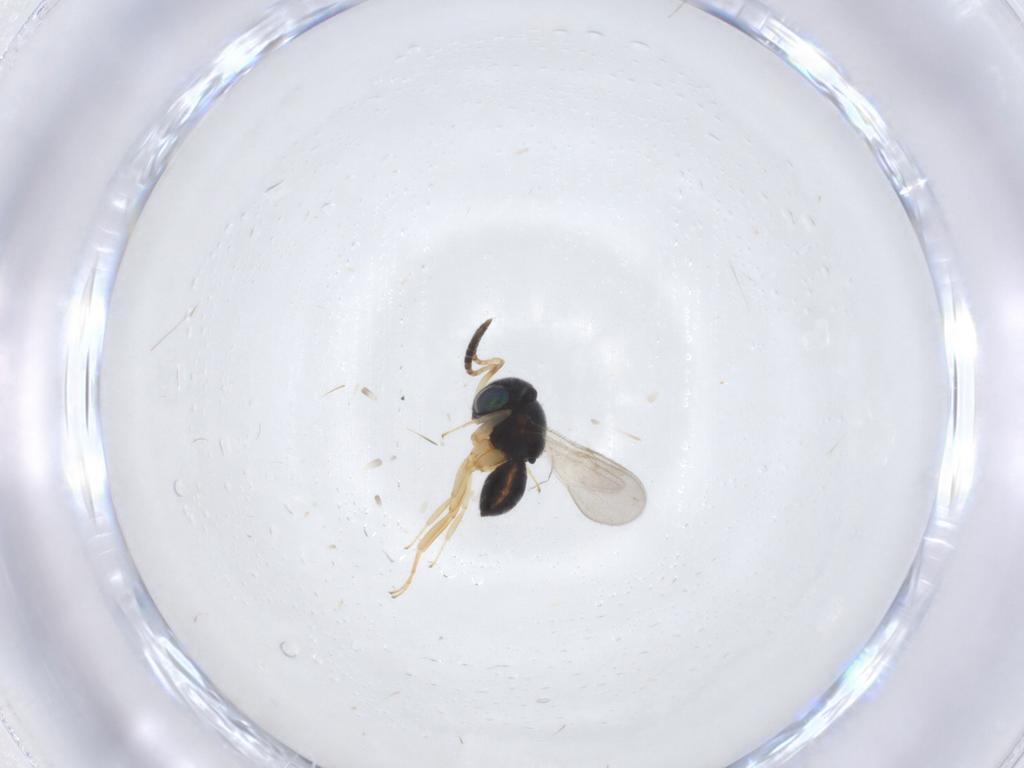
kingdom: Animalia
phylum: Arthropoda
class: Insecta
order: Hymenoptera
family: Scelionidae
